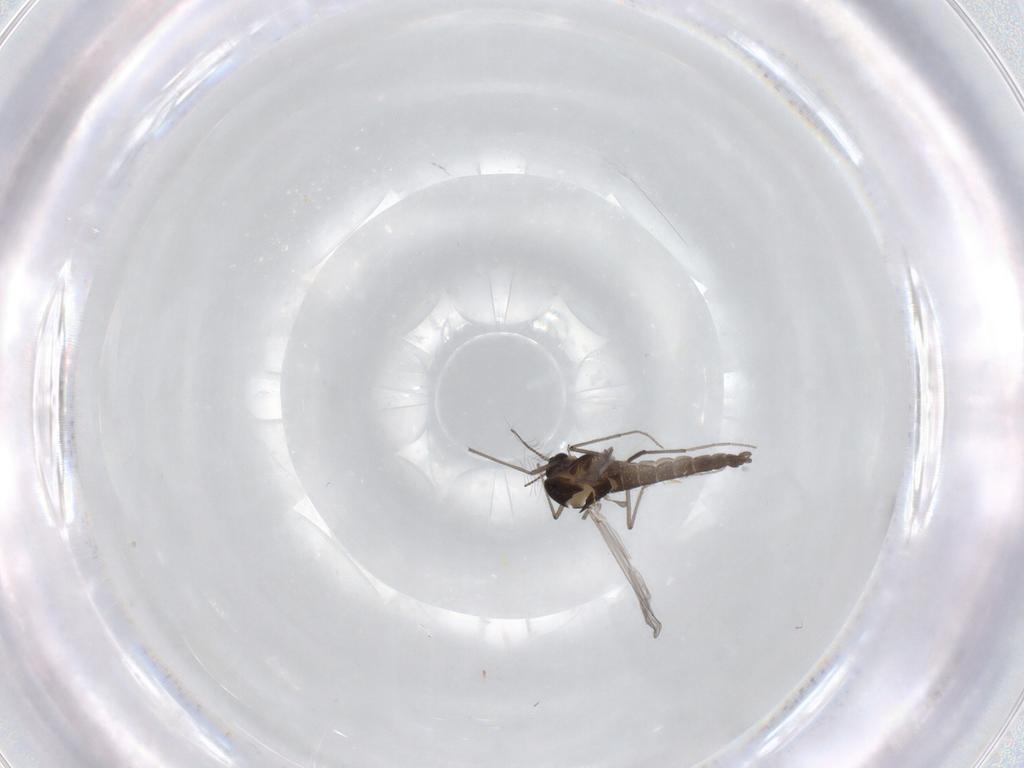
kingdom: Animalia
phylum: Arthropoda
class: Insecta
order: Diptera
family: Chironomidae
